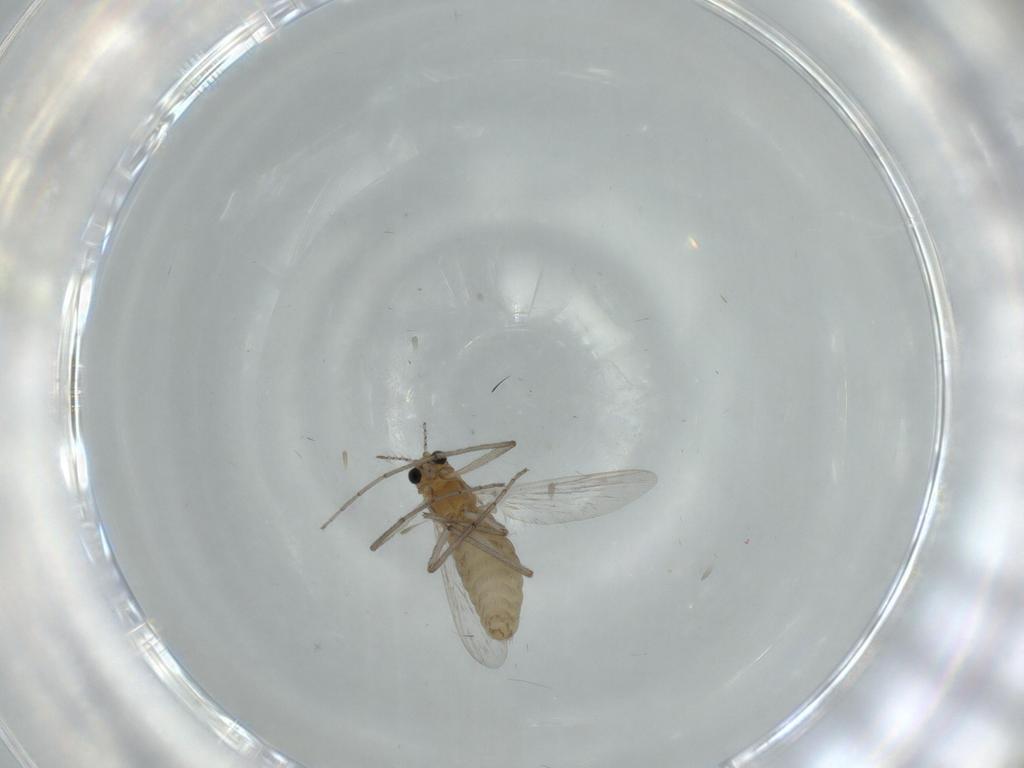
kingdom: Animalia
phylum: Arthropoda
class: Insecta
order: Diptera
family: Chironomidae
